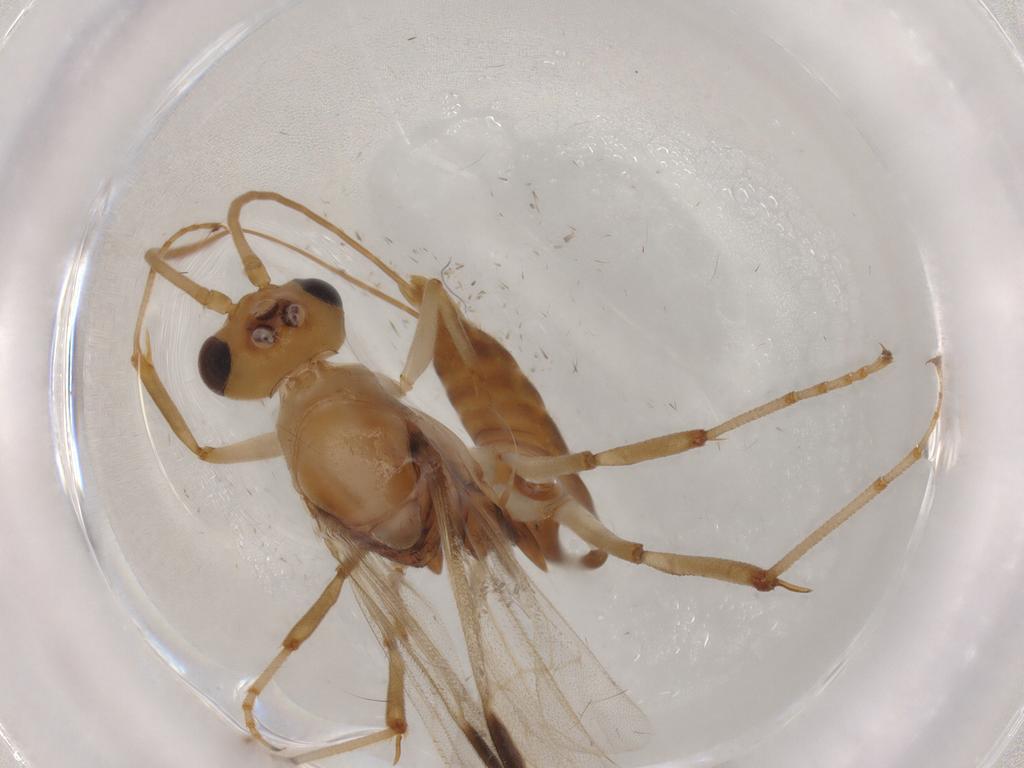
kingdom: Animalia
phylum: Arthropoda
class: Insecta
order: Hymenoptera
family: Formicidae
